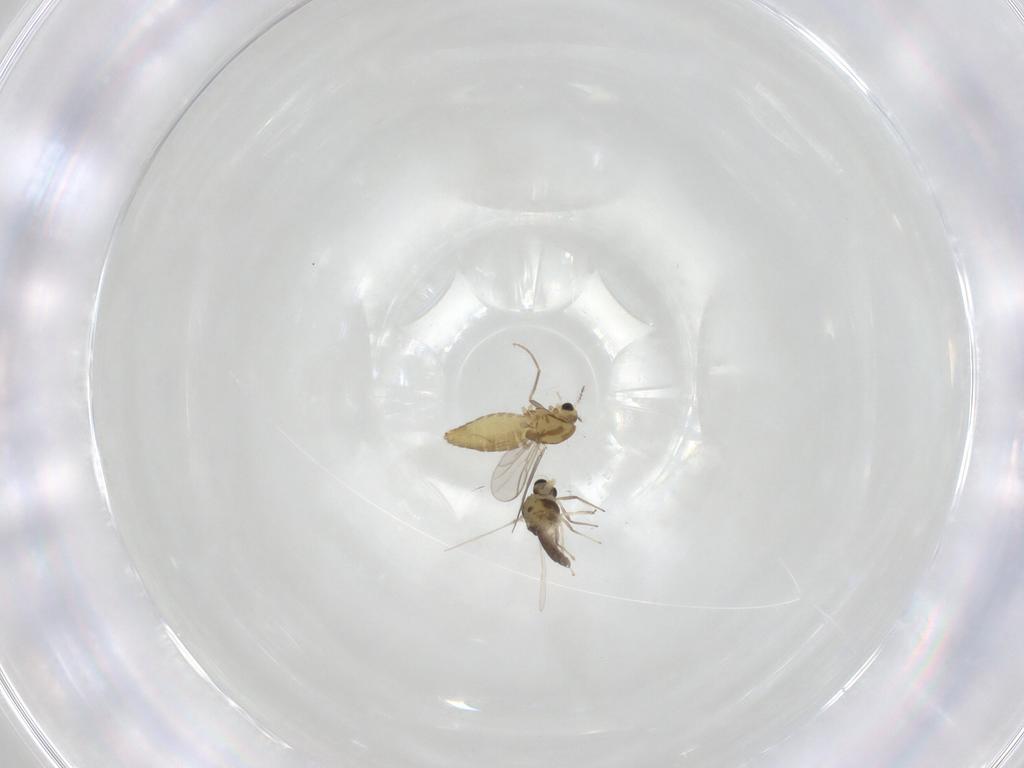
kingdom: Animalia
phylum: Arthropoda
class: Insecta
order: Diptera
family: Chironomidae
